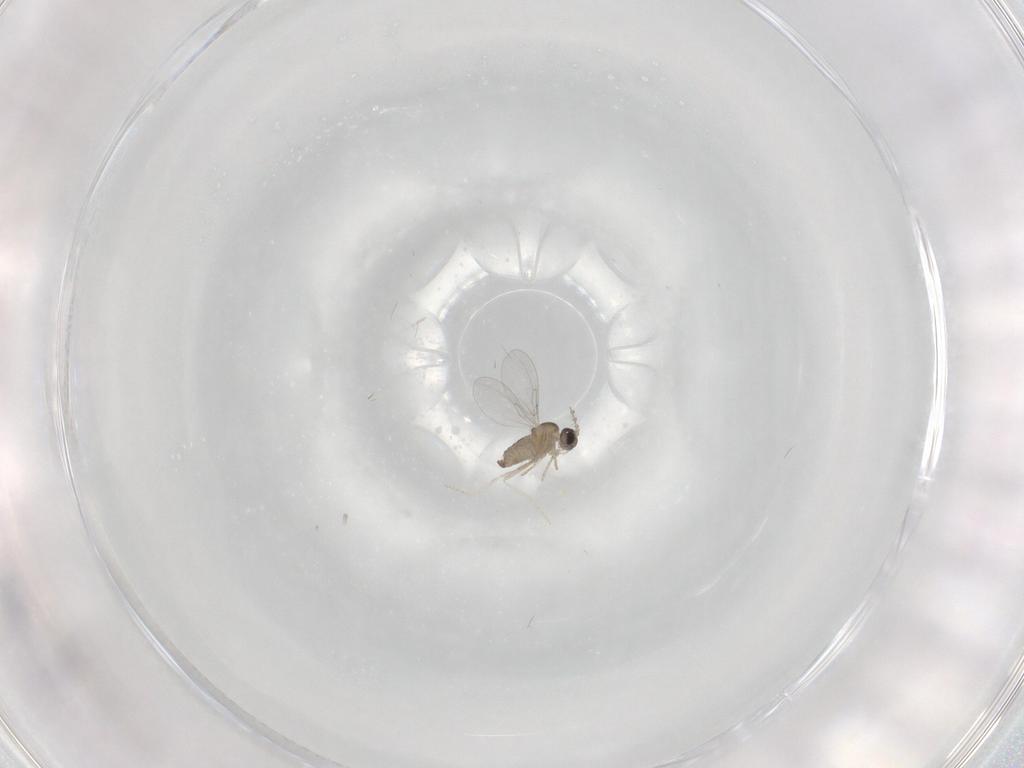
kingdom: Animalia
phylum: Arthropoda
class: Insecta
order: Diptera
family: Cecidomyiidae
